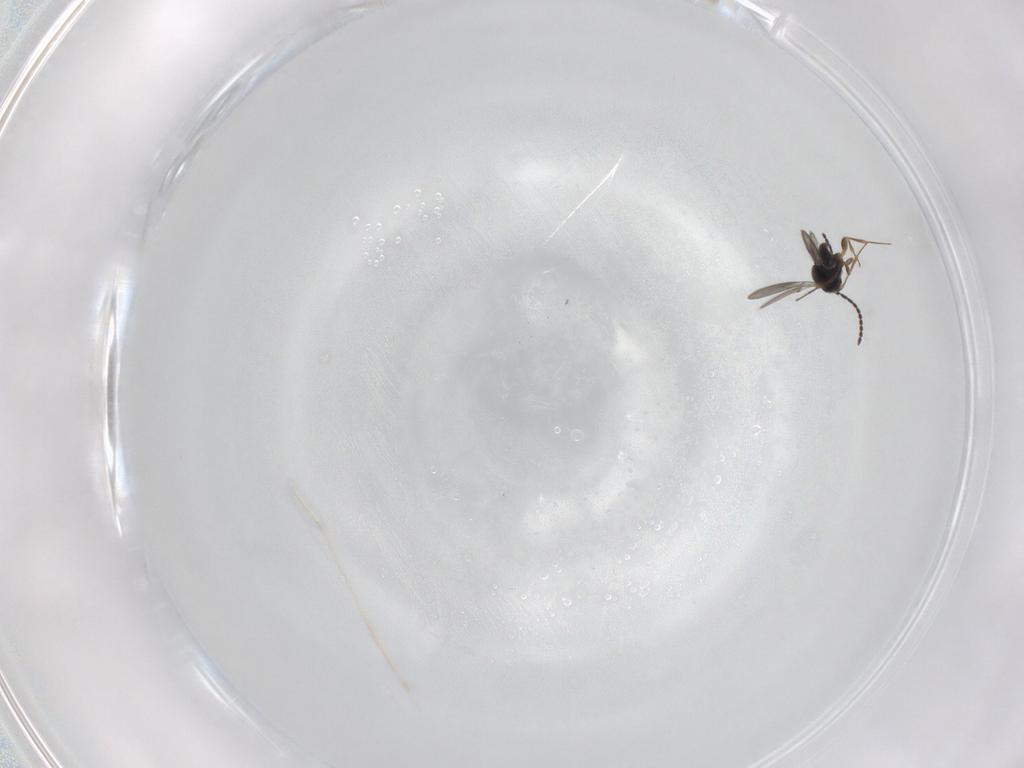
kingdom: Animalia
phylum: Arthropoda
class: Insecta
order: Hymenoptera
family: Scelionidae
